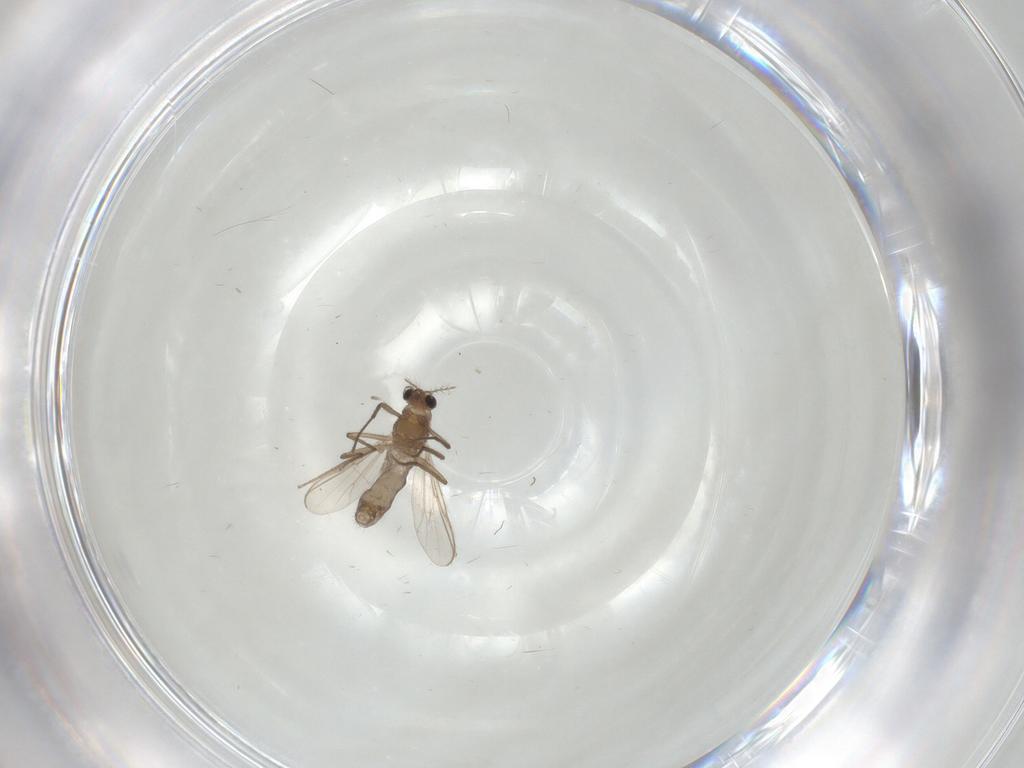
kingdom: Animalia
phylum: Arthropoda
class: Insecta
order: Diptera
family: Chironomidae
